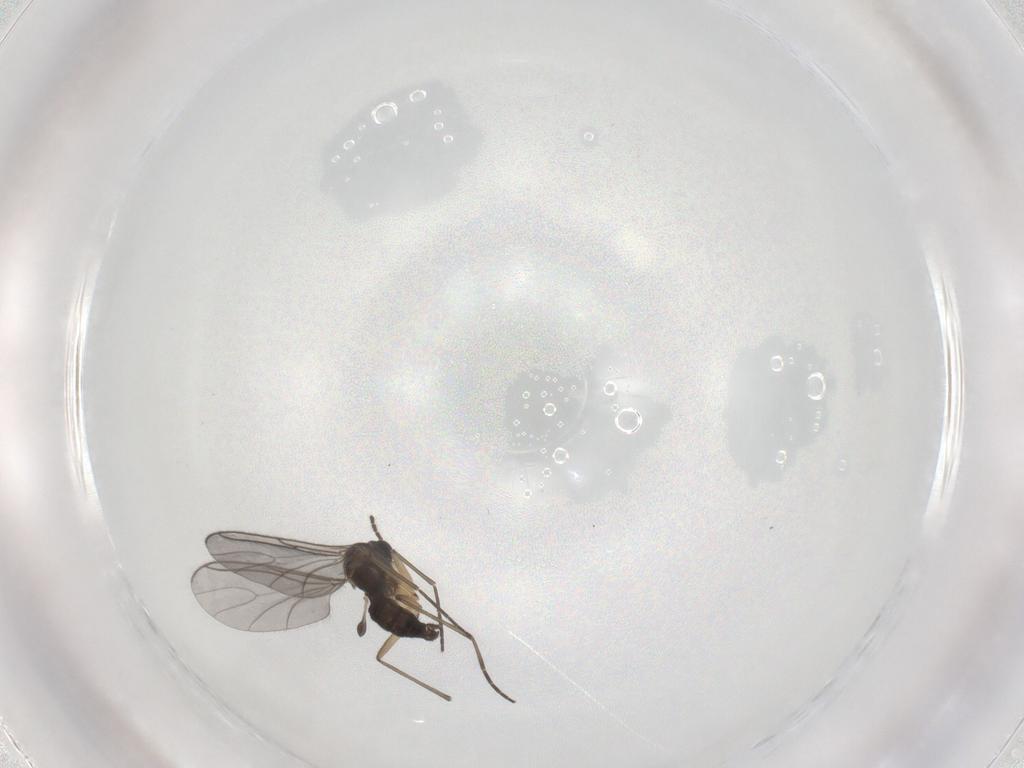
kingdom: Animalia
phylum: Arthropoda
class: Insecta
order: Diptera
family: Sciaridae
